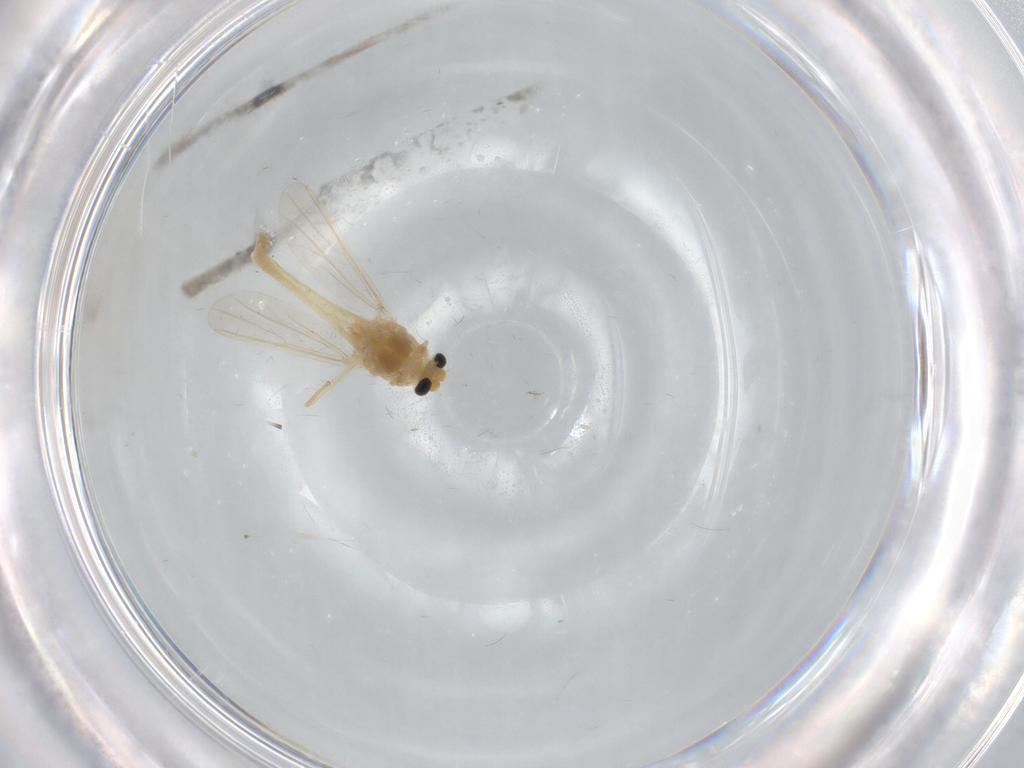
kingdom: Animalia
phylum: Arthropoda
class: Insecta
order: Diptera
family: Chironomidae
